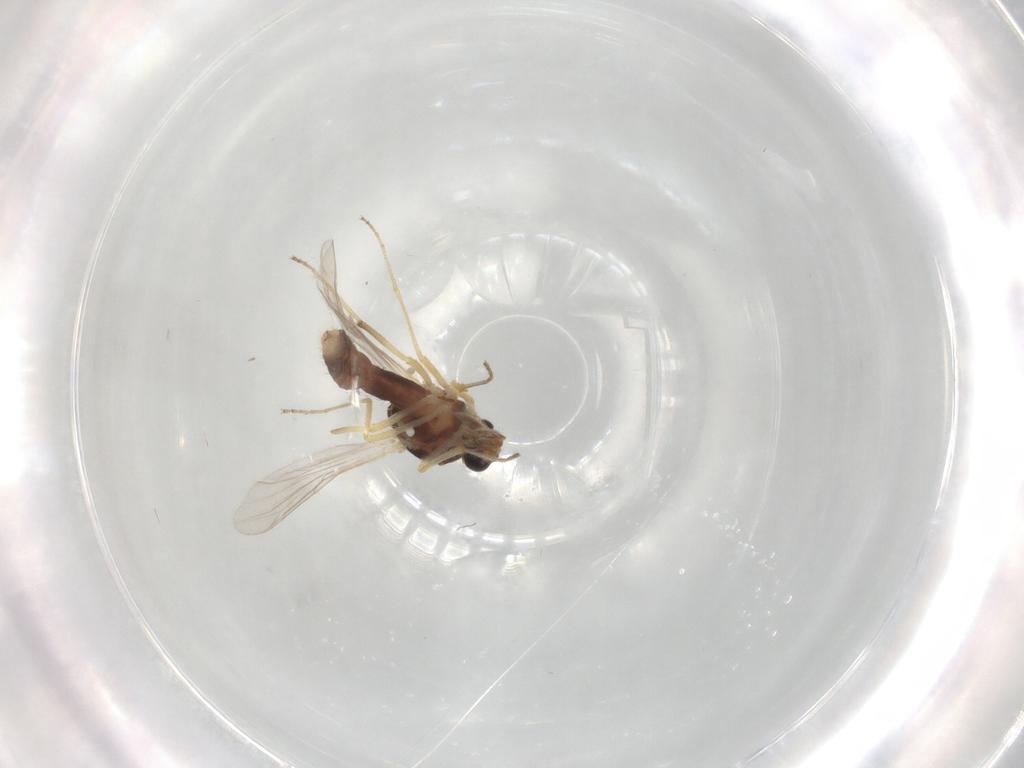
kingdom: Animalia
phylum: Arthropoda
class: Insecta
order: Diptera
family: Ceratopogonidae
